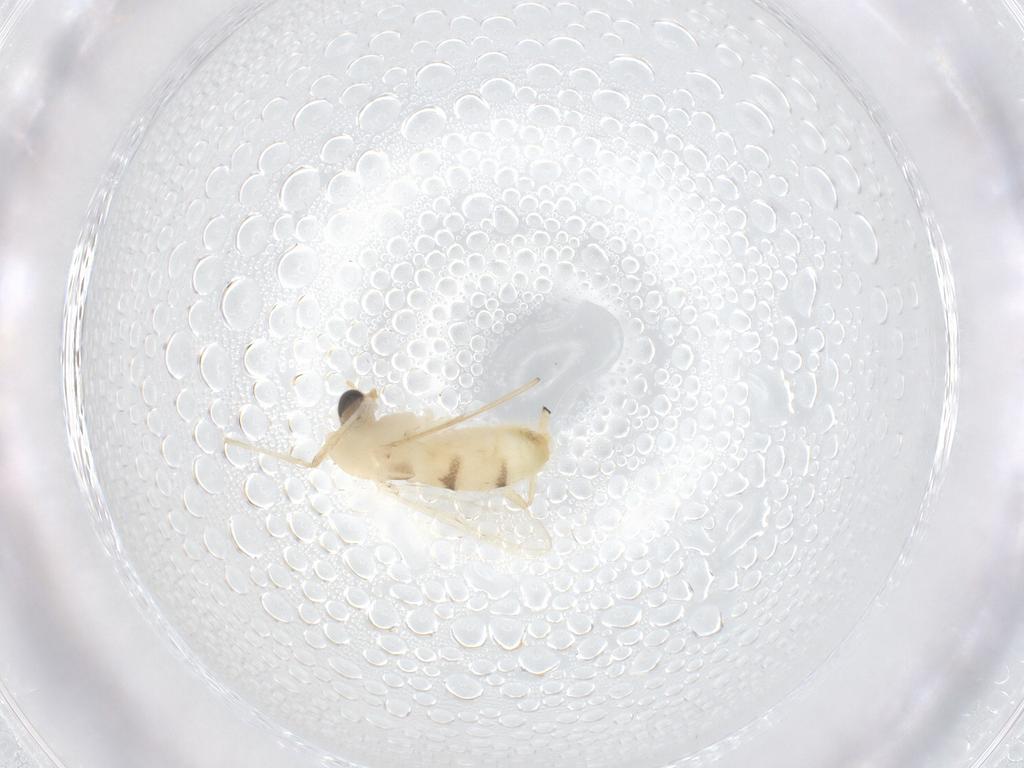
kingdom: Animalia
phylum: Arthropoda
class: Insecta
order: Diptera
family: Chironomidae
